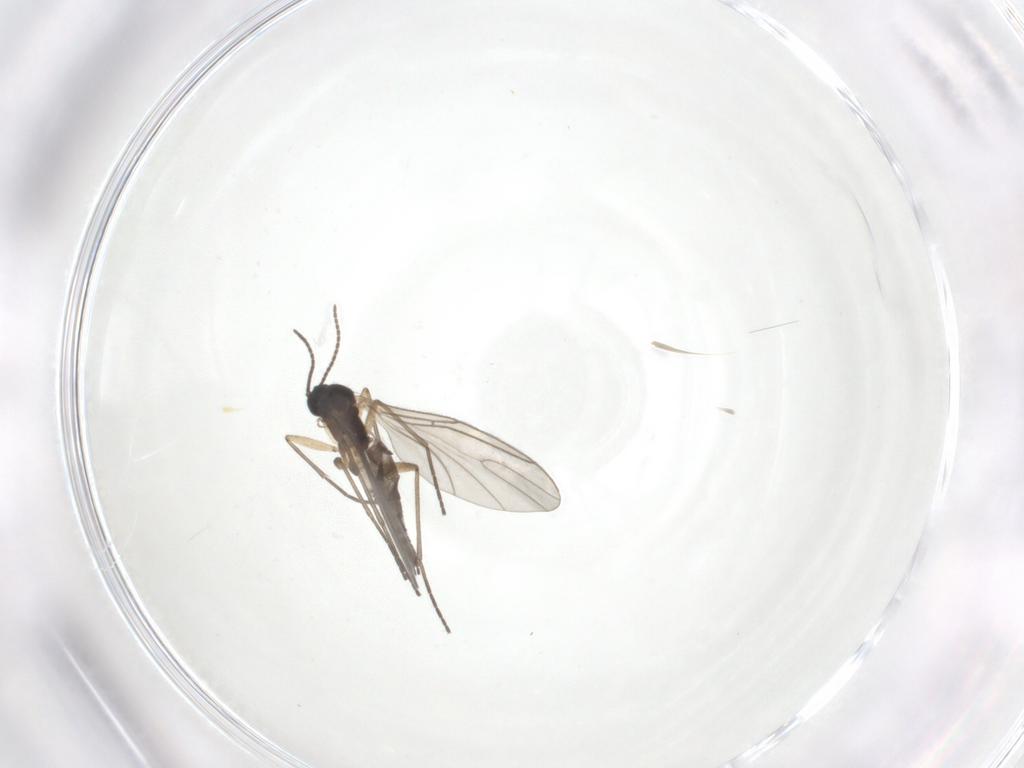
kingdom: Animalia
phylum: Arthropoda
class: Insecta
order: Diptera
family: Sciaridae
